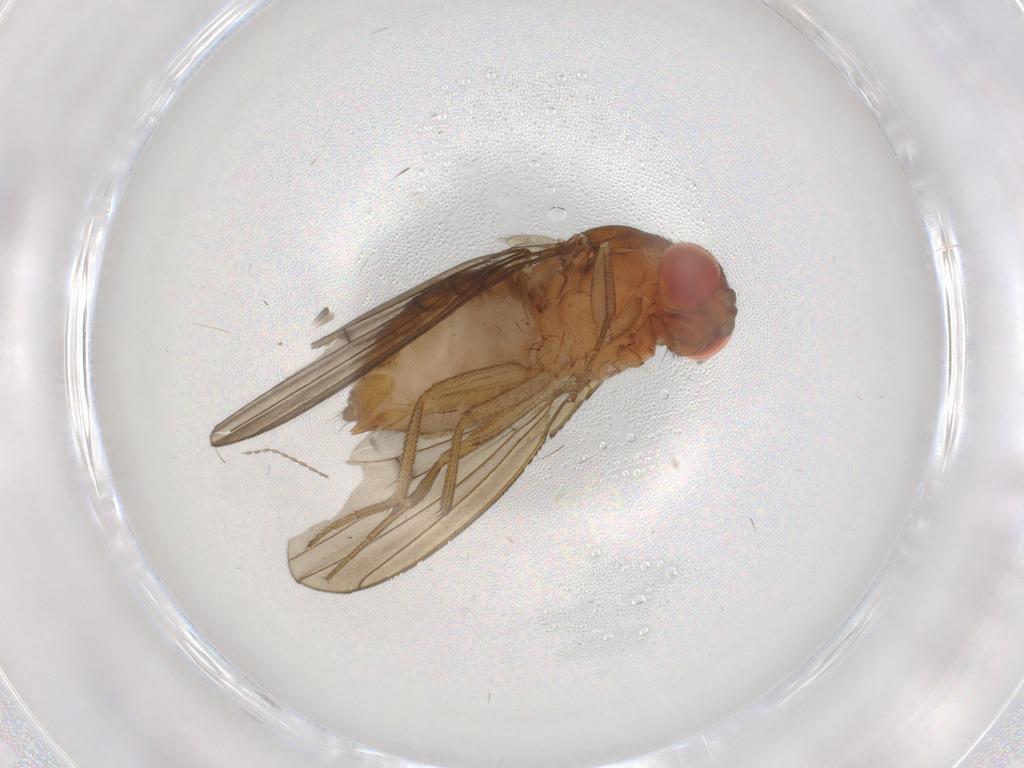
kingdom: Animalia
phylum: Arthropoda
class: Insecta
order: Diptera
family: Drosophilidae
